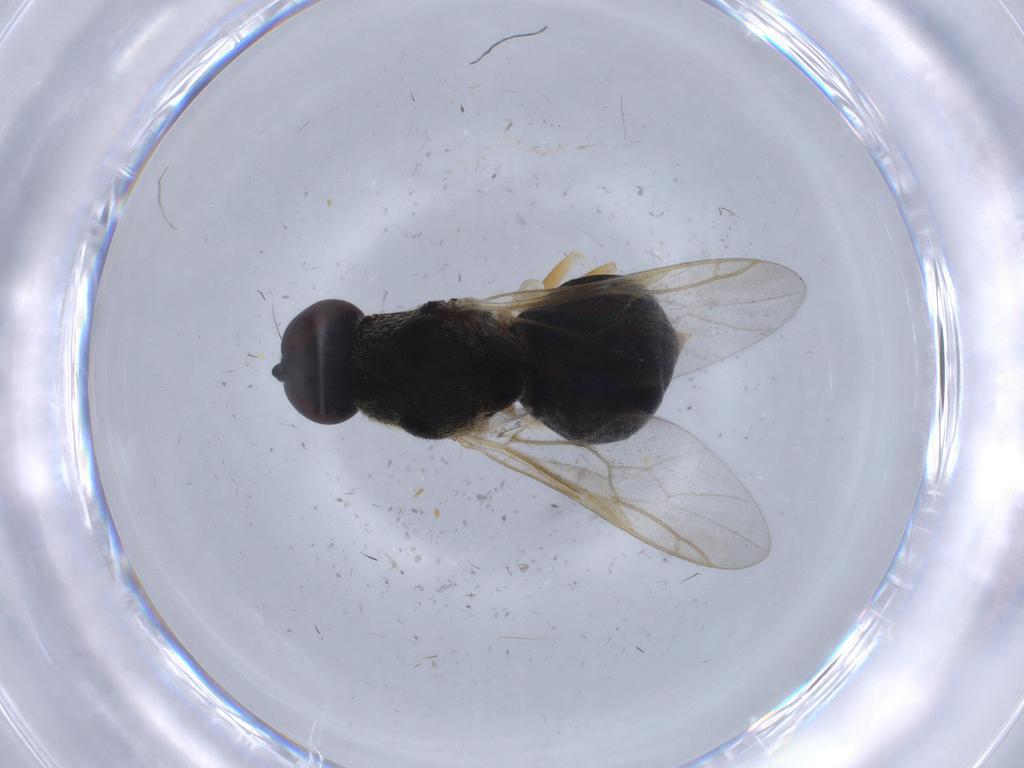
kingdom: Animalia
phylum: Arthropoda
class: Insecta
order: Diptera
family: Stratiomyidae
